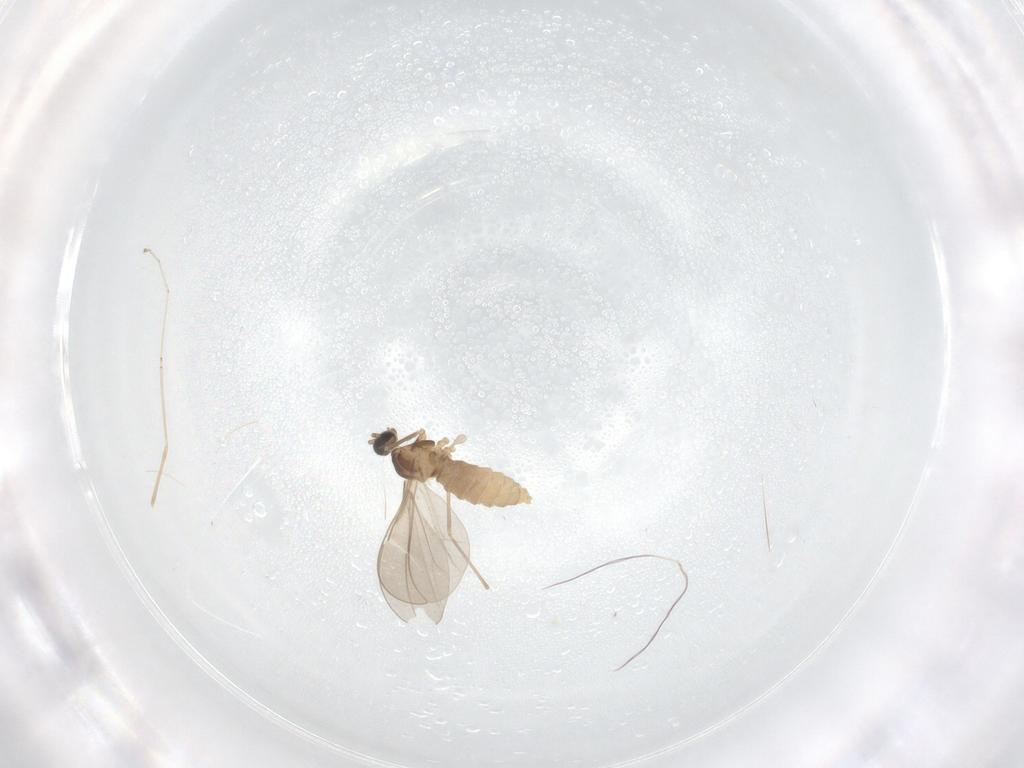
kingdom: Animalia
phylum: Arthropoda
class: Insecta
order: Diptera
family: Cecidomyiidae
